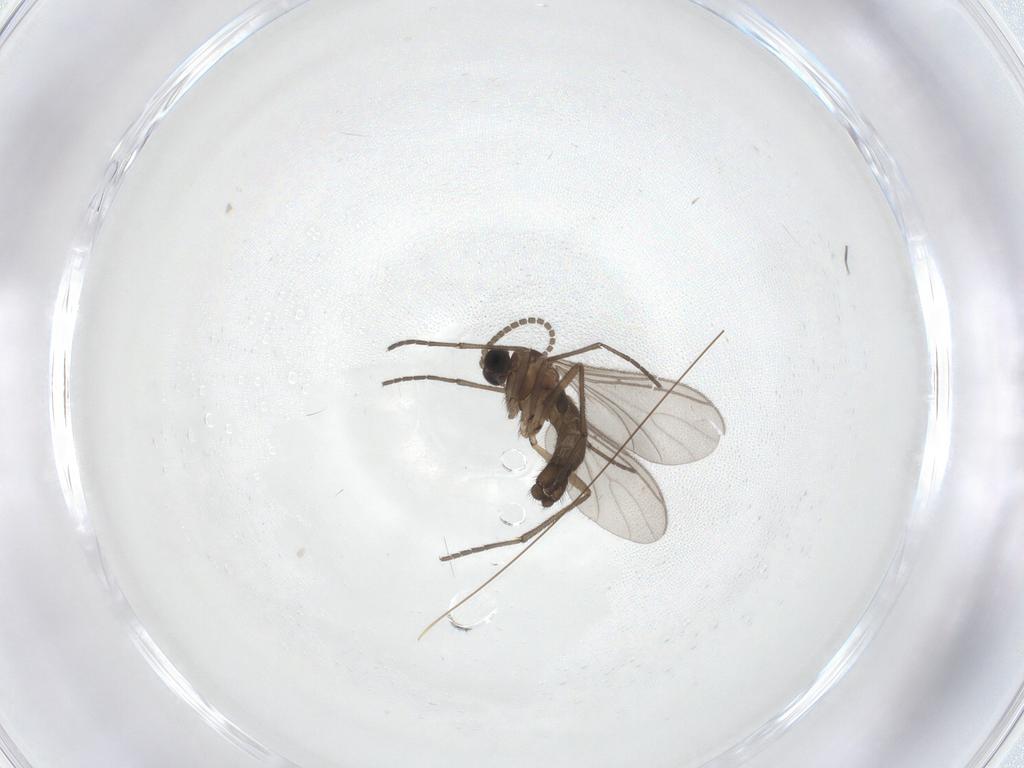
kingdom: Animalia
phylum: Arthropoda
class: Insecta
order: Diptera
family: Sciaridae
